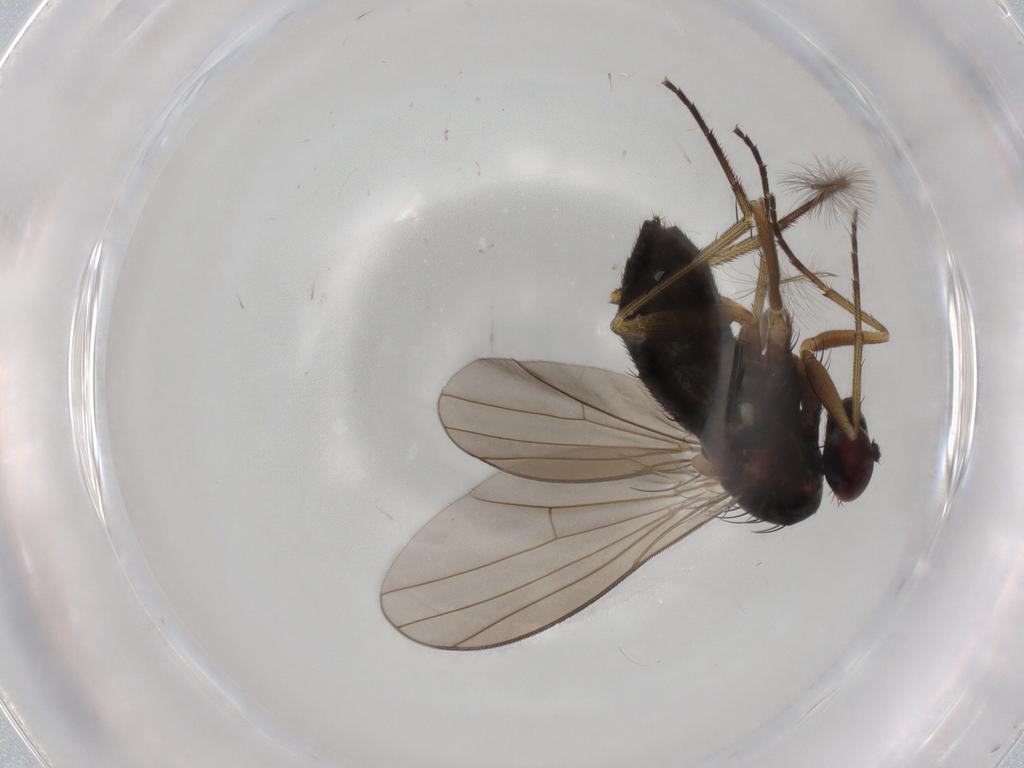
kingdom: Animalia
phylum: Arthropoda
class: Insecta
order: Diptera
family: Dolichopodidae
